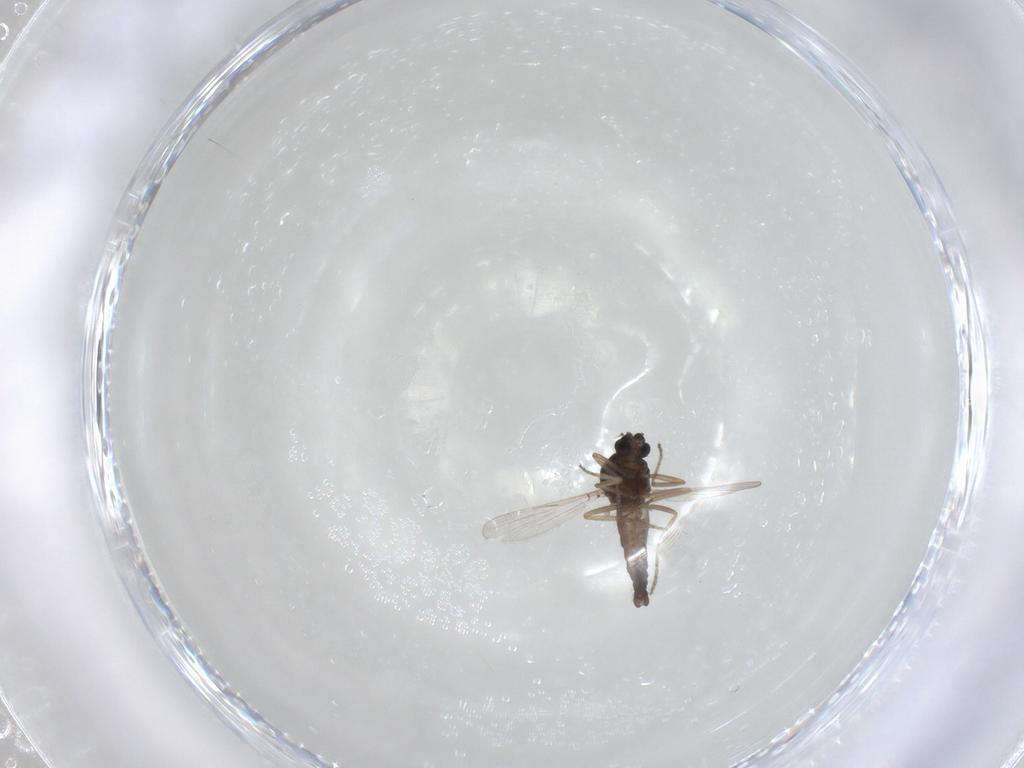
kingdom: Animalia
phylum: Arthropoda
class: Insecta
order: Diptera
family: Ceratopogonidae
